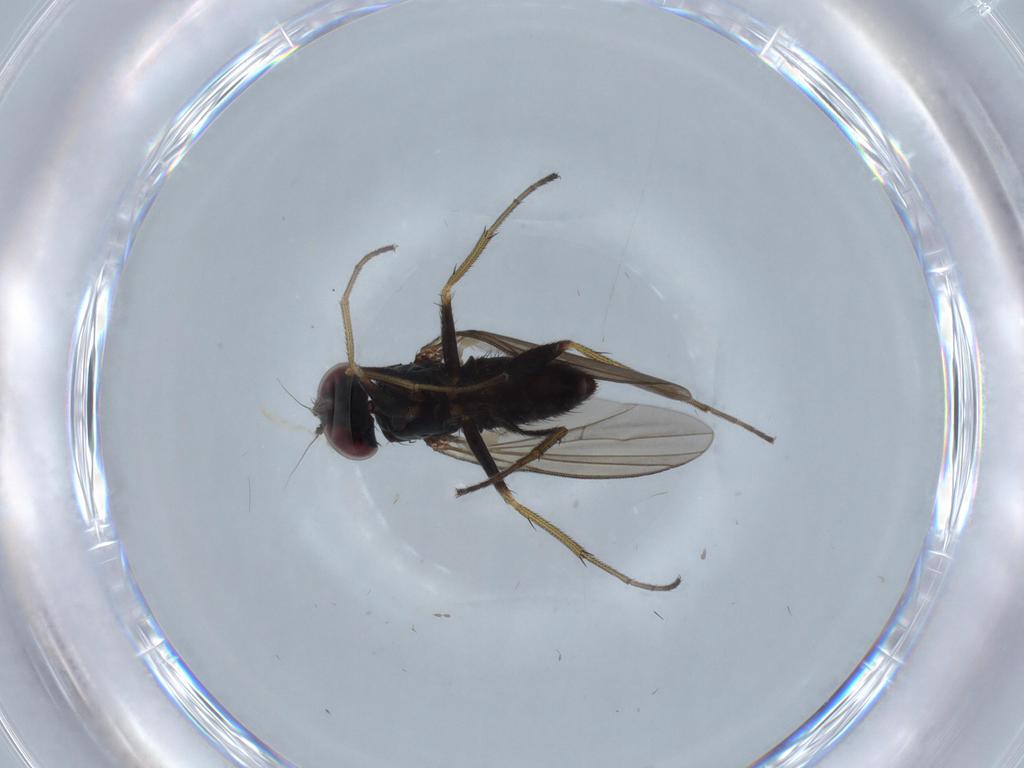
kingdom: Animalia
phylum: Arthropoda
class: Insecta
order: Diptera
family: Dolichopodidae
